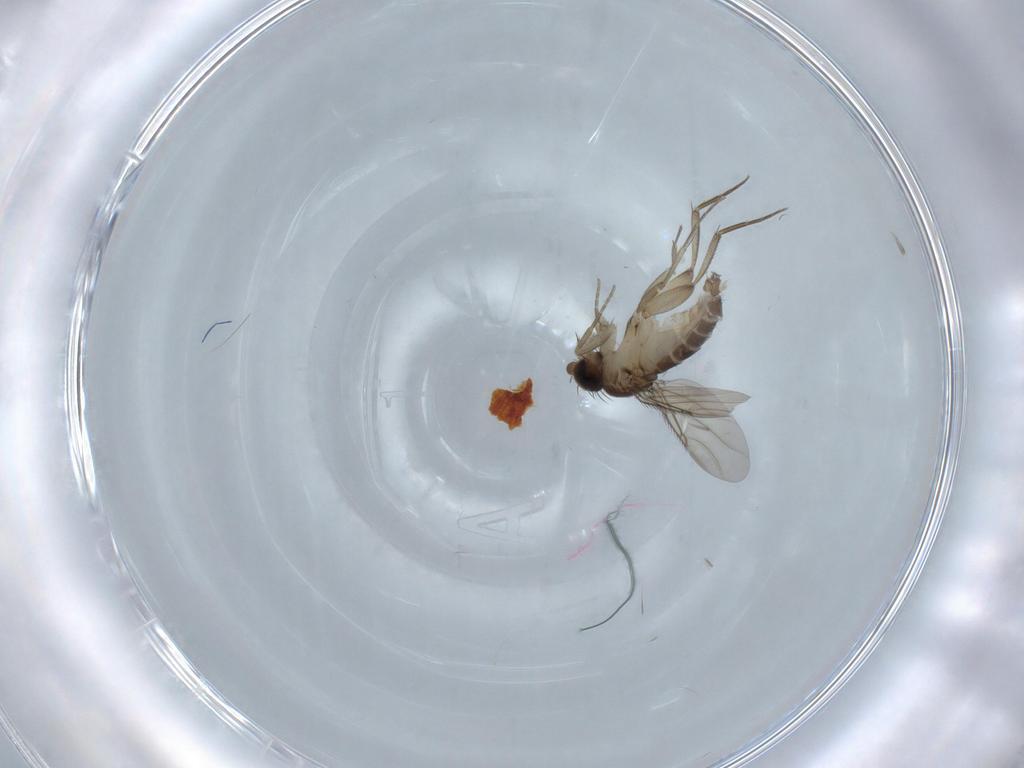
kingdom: Animalia
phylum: Arthropoda
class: Insecta
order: Diptera
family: Phoridae
